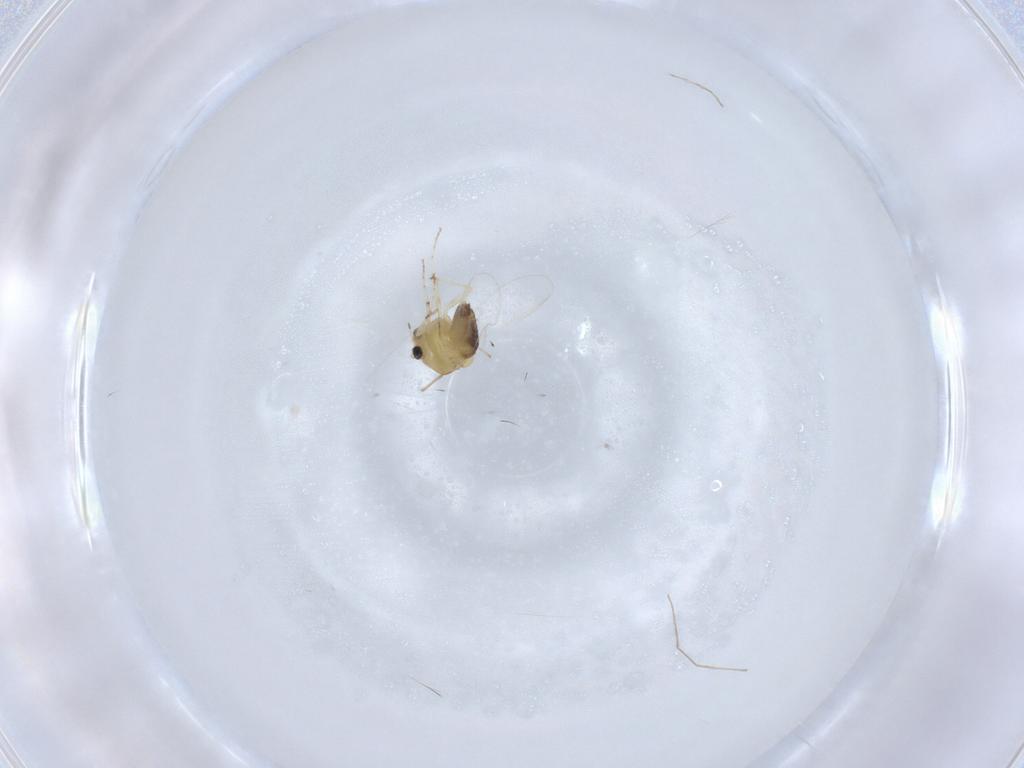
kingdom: Animalia
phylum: Arthropoda
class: Insecta
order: Diptera
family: Chironomidae
